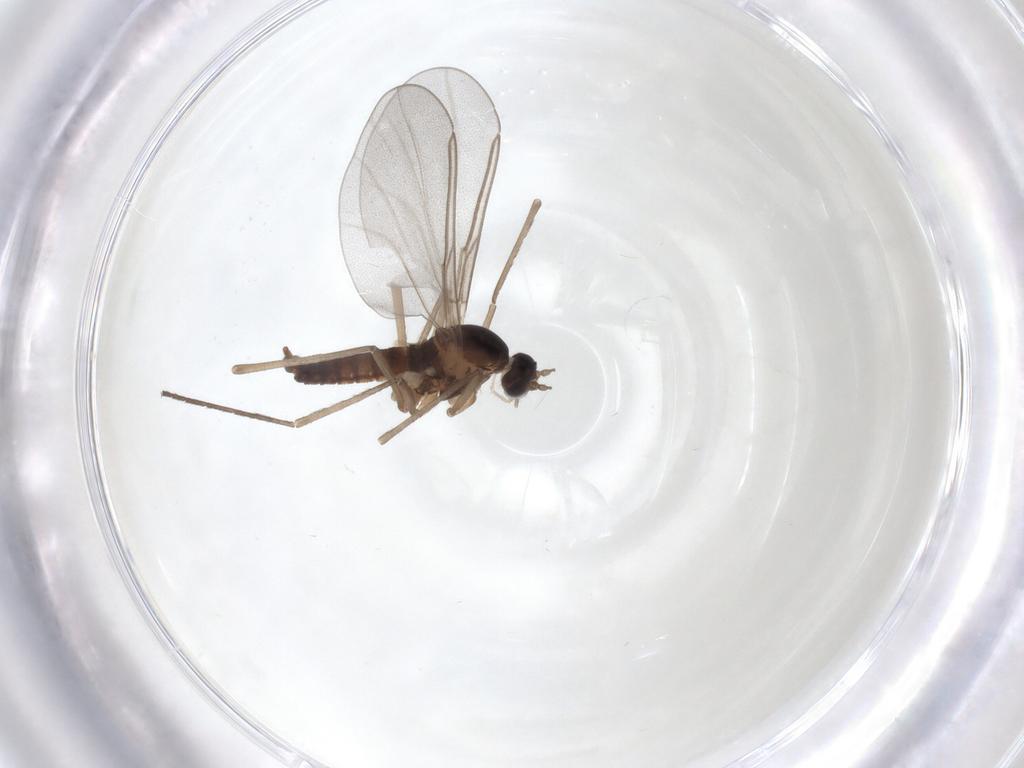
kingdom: Animalia
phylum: Arthropoda
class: Insecta
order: Diptera
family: Cecidomyiidae
